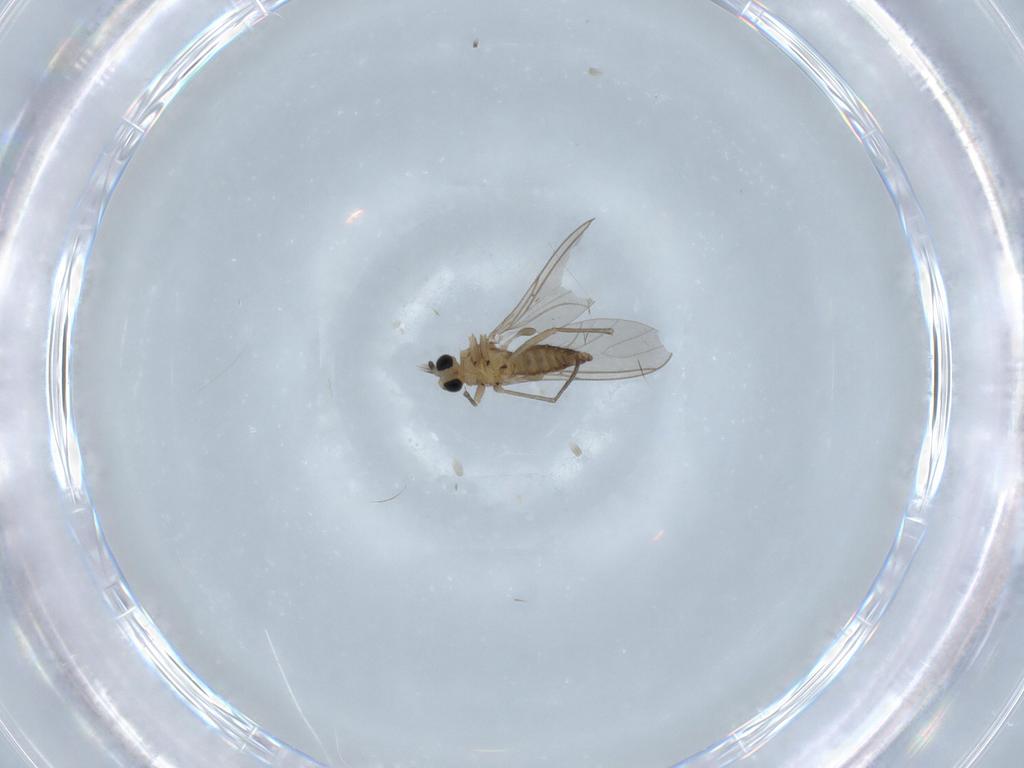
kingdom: Animalia
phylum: Arthropoda
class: Insecta
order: Diptera
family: Sciaridae
